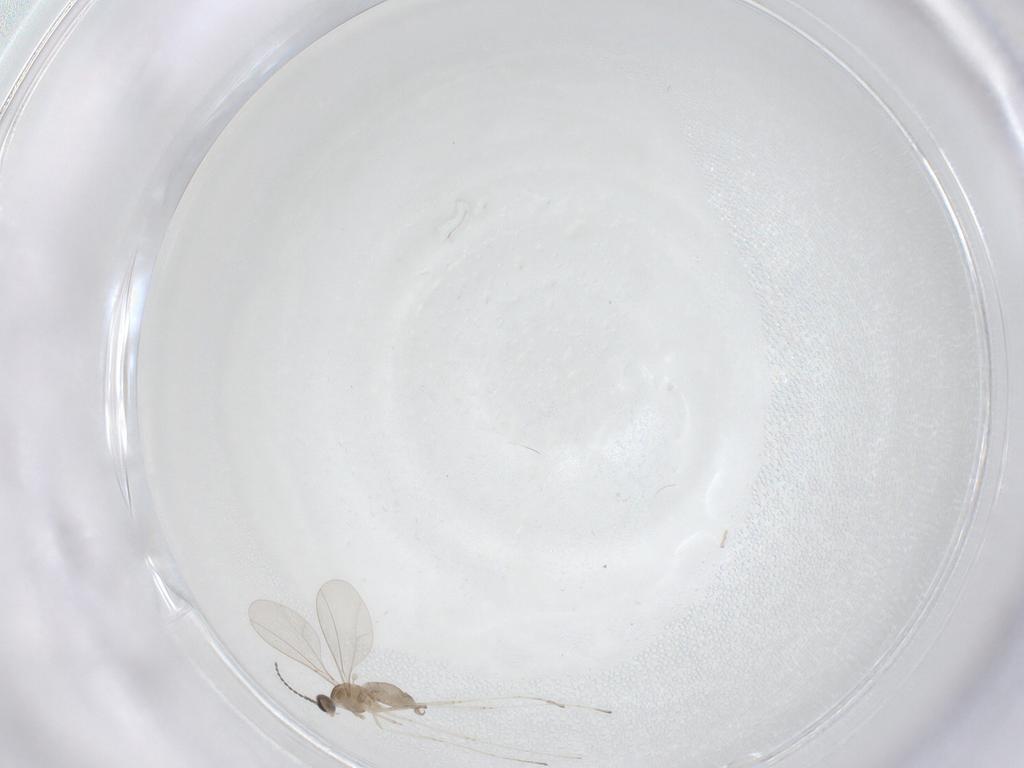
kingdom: Animalia
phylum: Arthropoda
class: Insecta
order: Diptera
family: Cecidomyiidae
